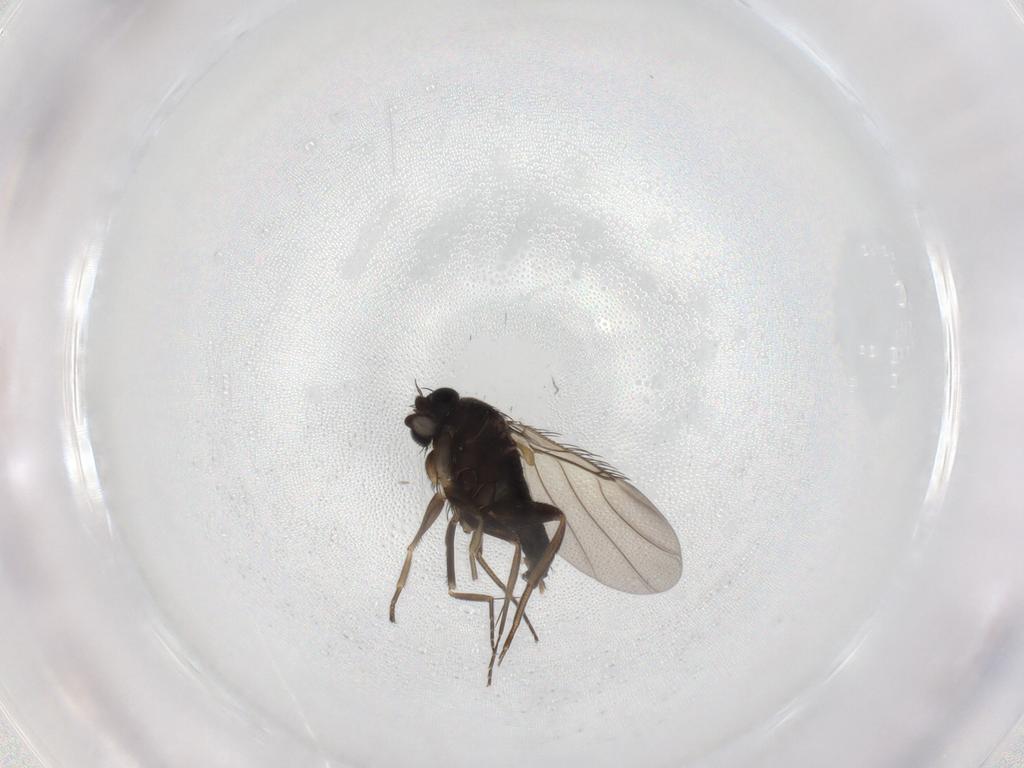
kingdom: Animalia
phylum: Arthropoda
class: Insecta
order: Diptera
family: Phoridae
